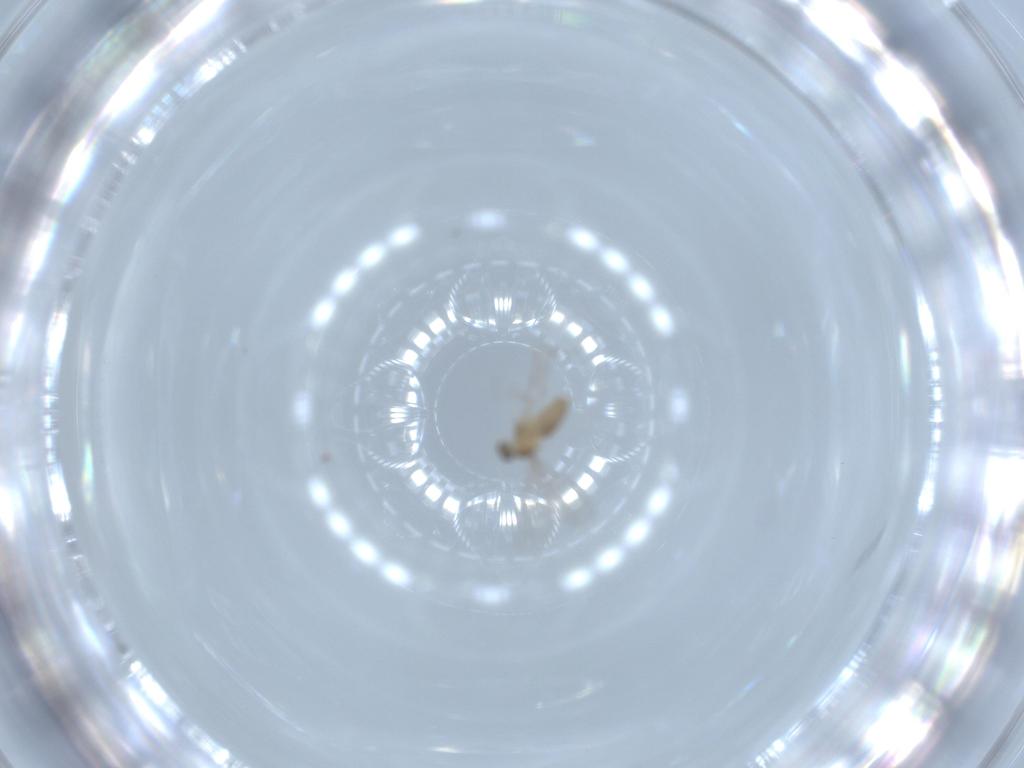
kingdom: Animalia
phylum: Arthropoda
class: Insecta
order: Diptera
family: Cecidomyiidae
